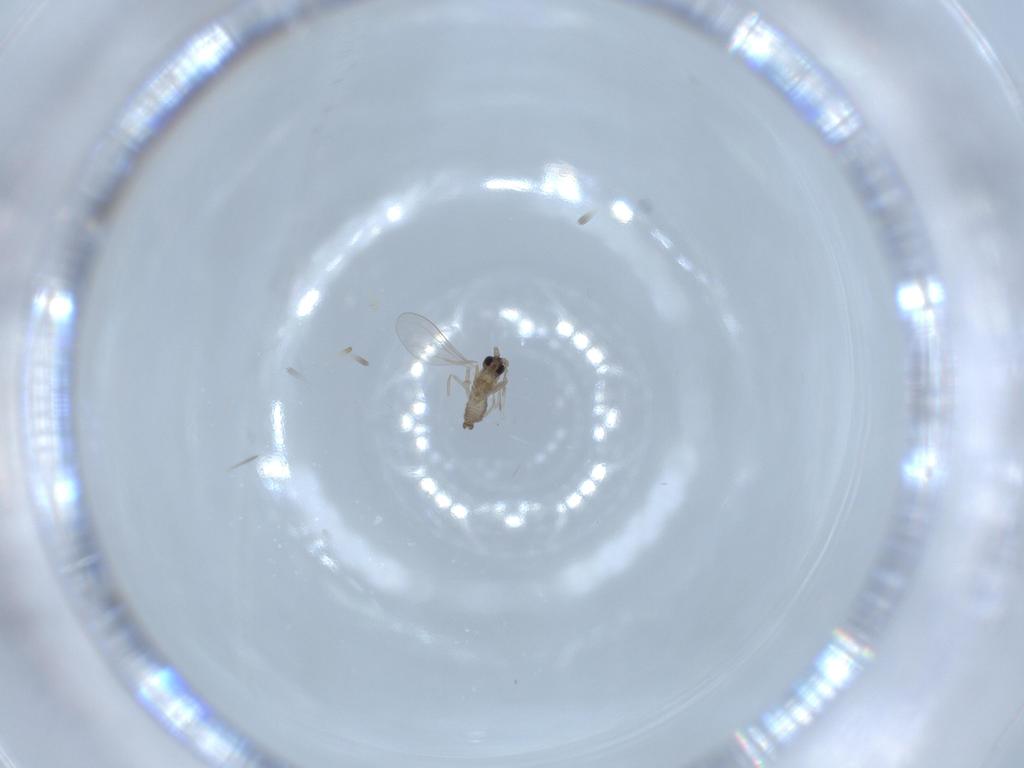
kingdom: Animalia
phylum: Arthropoda
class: Insecta
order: Diptera
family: Cecidomyiidae
